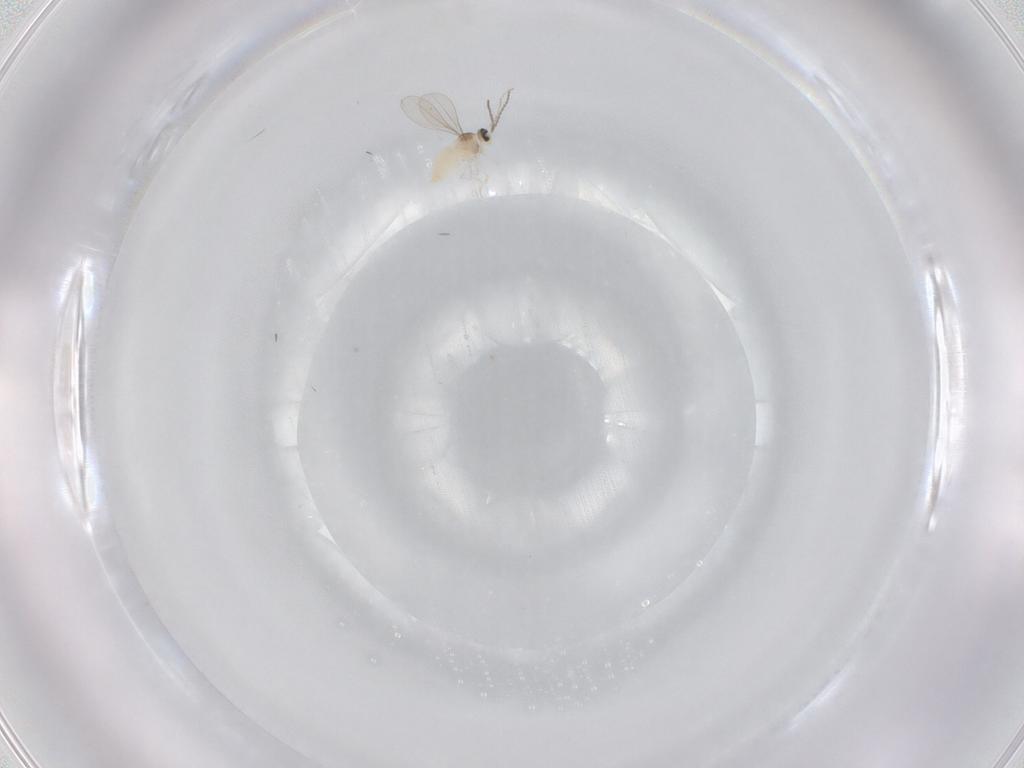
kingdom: Animalia
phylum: Arthropoda
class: Insecta
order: Diptera
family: Cecidomyiidae
